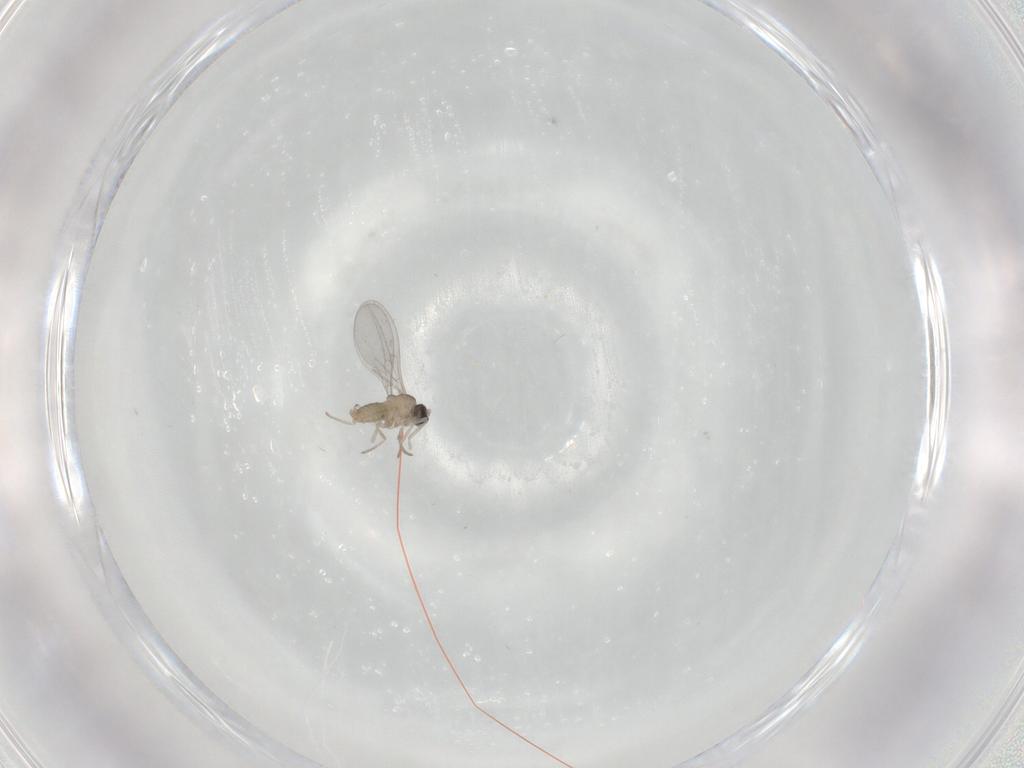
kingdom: Animalia
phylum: Arthropoda
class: Insecta
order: Diptera
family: Cecidomyiidae
